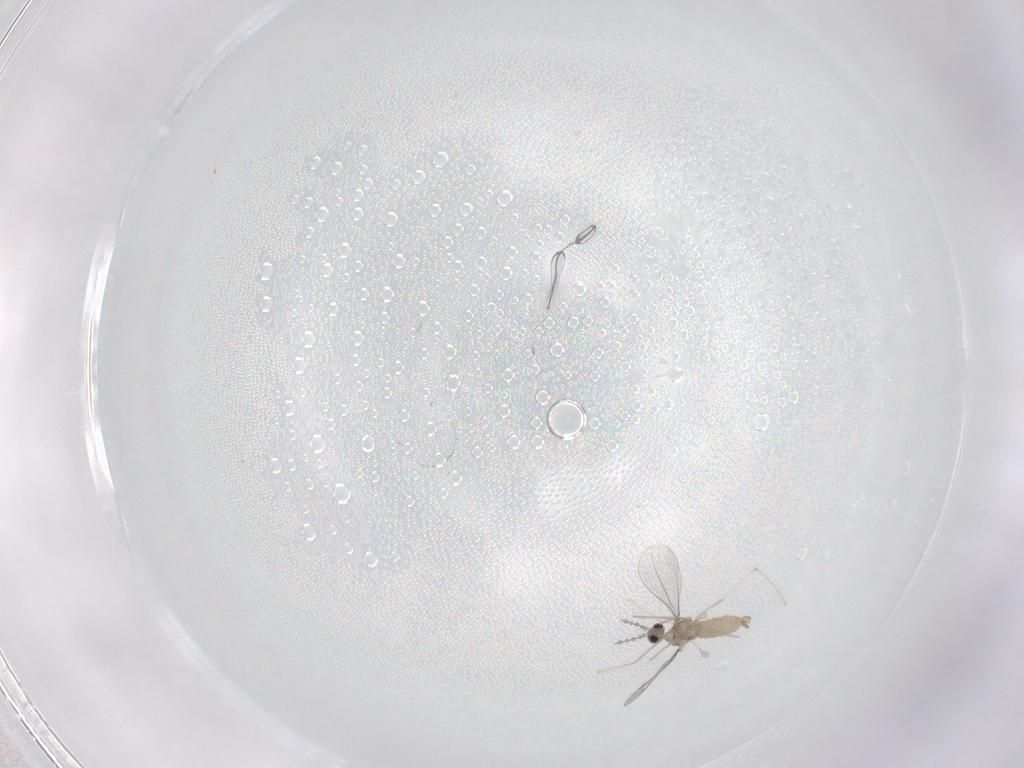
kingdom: Animalia
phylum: Arthropoda
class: Insecta
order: Diptera
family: Cecidomyiidae
